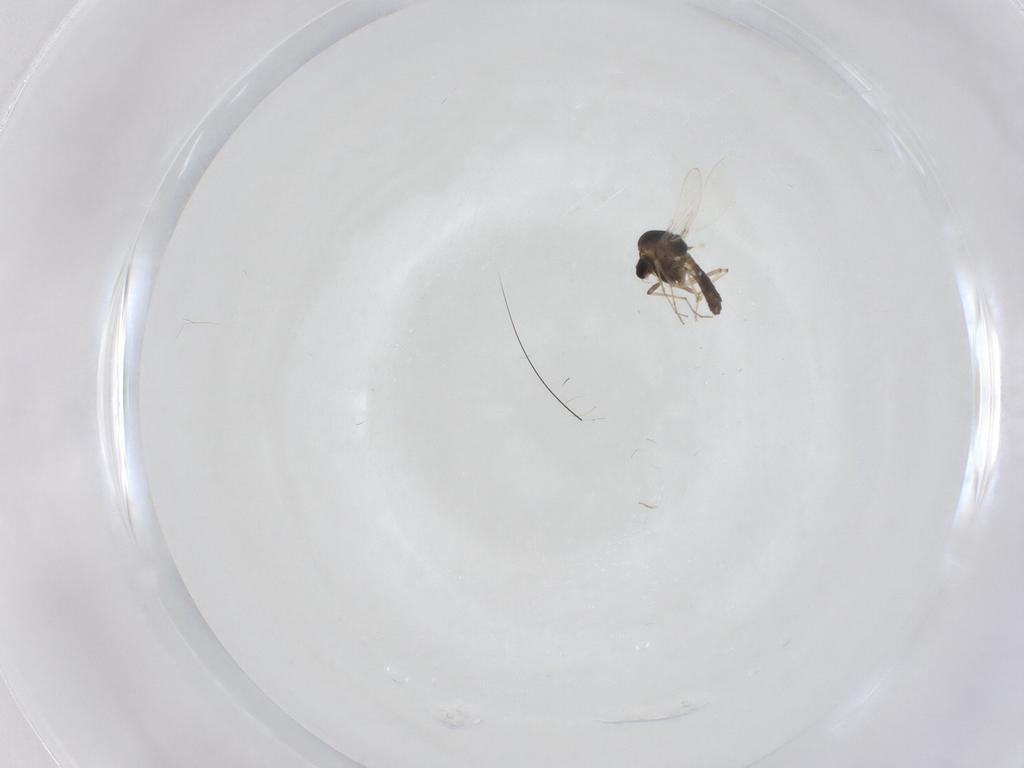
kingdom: Animalia
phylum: Arthropoda
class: Insecta
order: Diptera
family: Chironomidae
